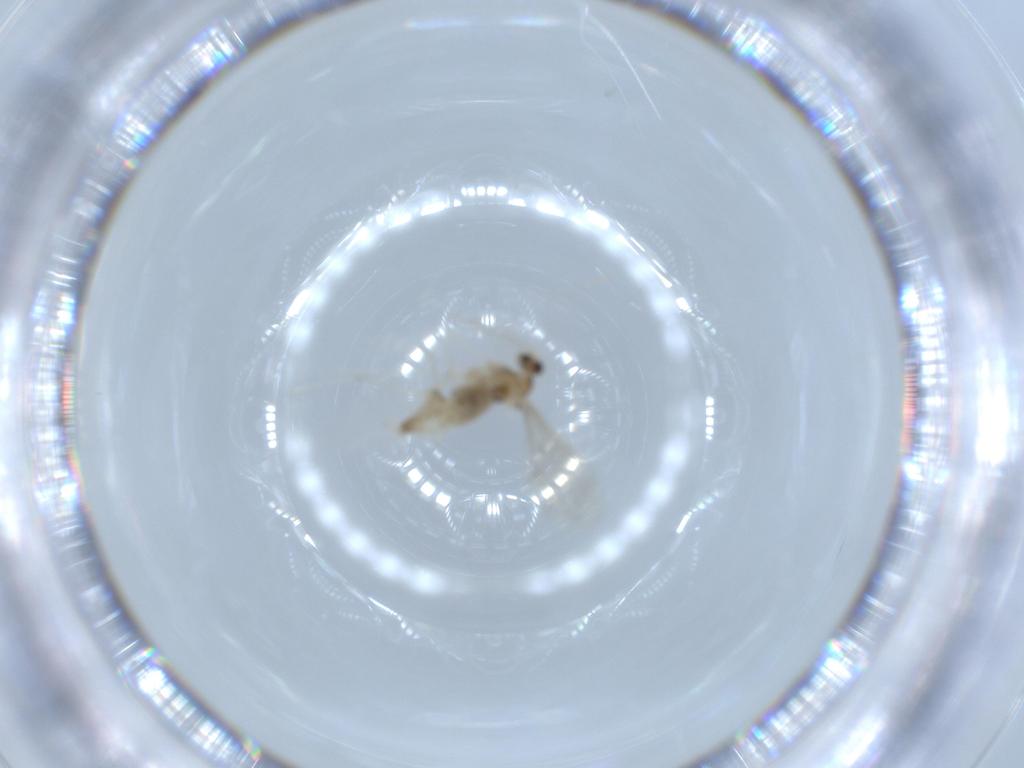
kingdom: Animalia
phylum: Arthropoda
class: Insecta
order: Diptera
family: Cecidomyiidae
